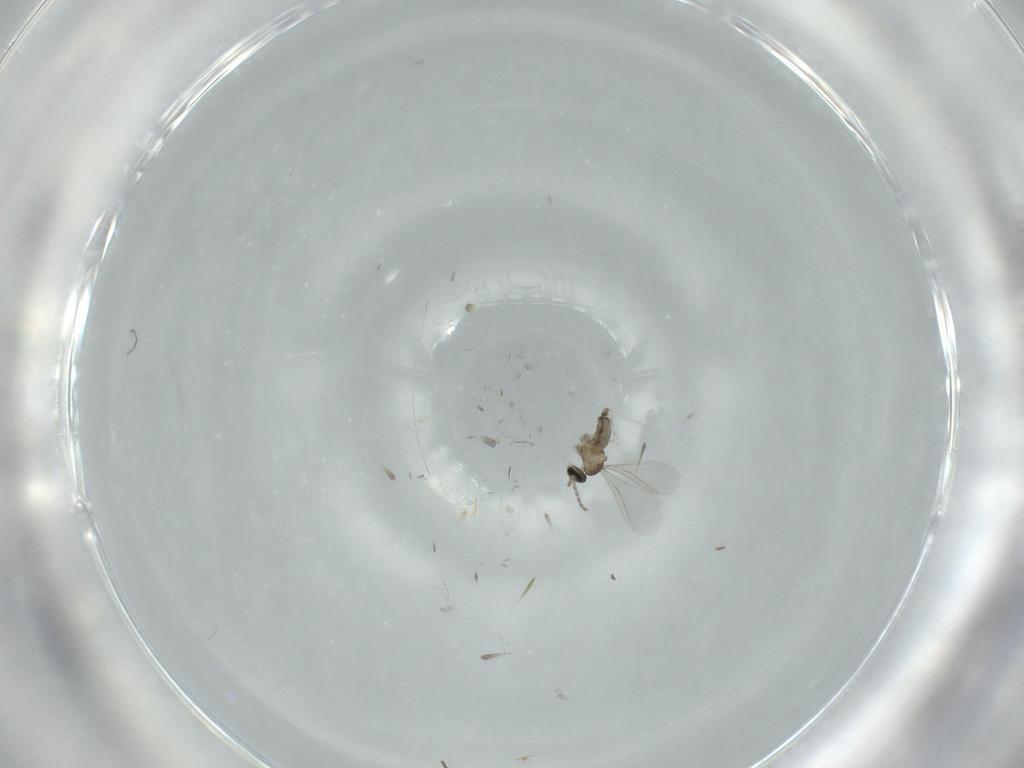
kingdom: Animalia
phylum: Arthropoda
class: Insecta
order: Diptera
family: Cecidomyiidae
